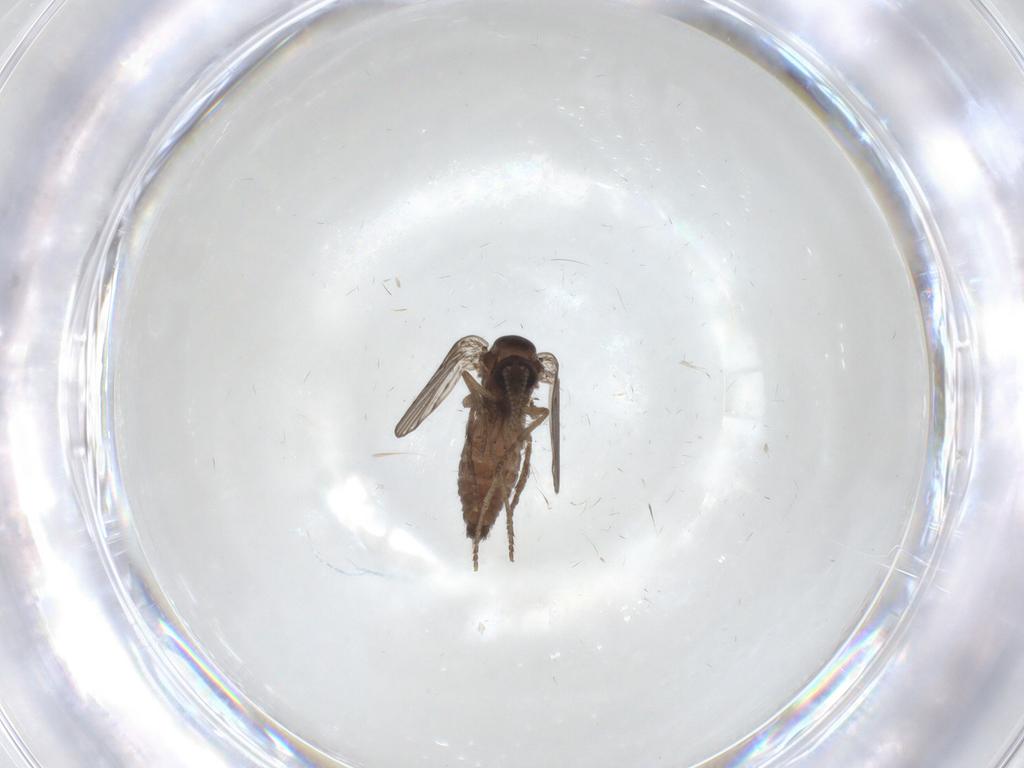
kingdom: Animalia
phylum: Arthropoda
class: Insecta
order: Diptera
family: Psychodidae
